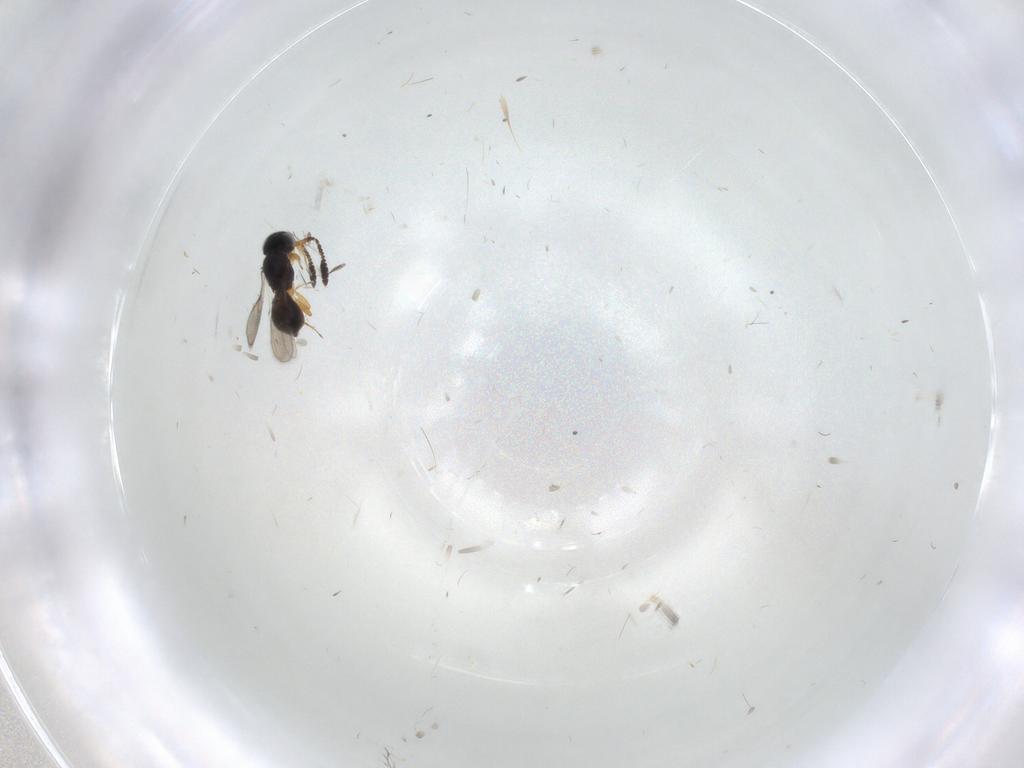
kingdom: Animalia
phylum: Arthropoda
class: Insecta
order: Hymenoptera
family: Scelionidae
